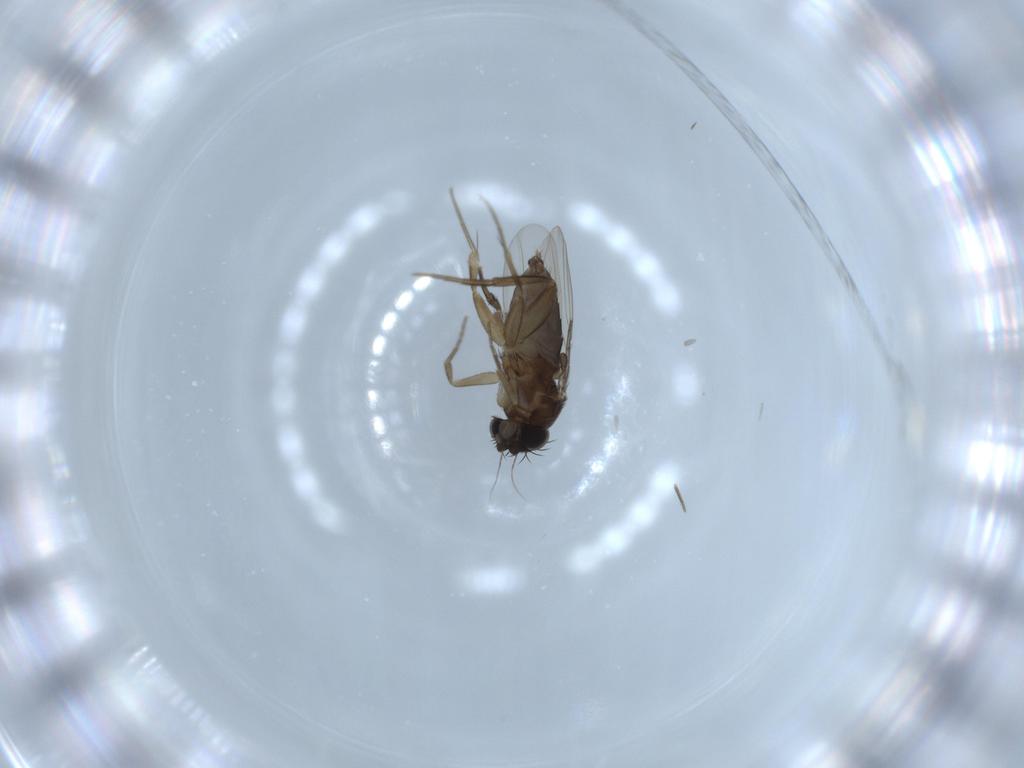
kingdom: Animalia
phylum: Arthropoda
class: Insecta
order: Diptera
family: Phoridae
